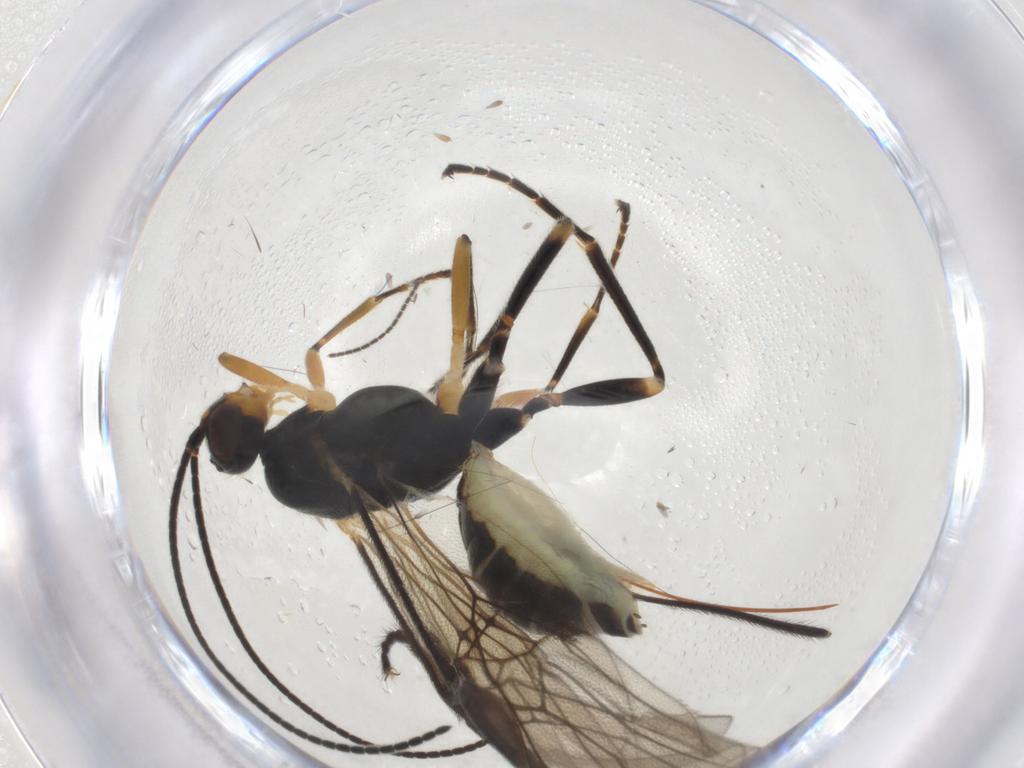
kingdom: Animalia
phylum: Arthropoda
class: Insecta
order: Hymenoptera
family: Braconidae
